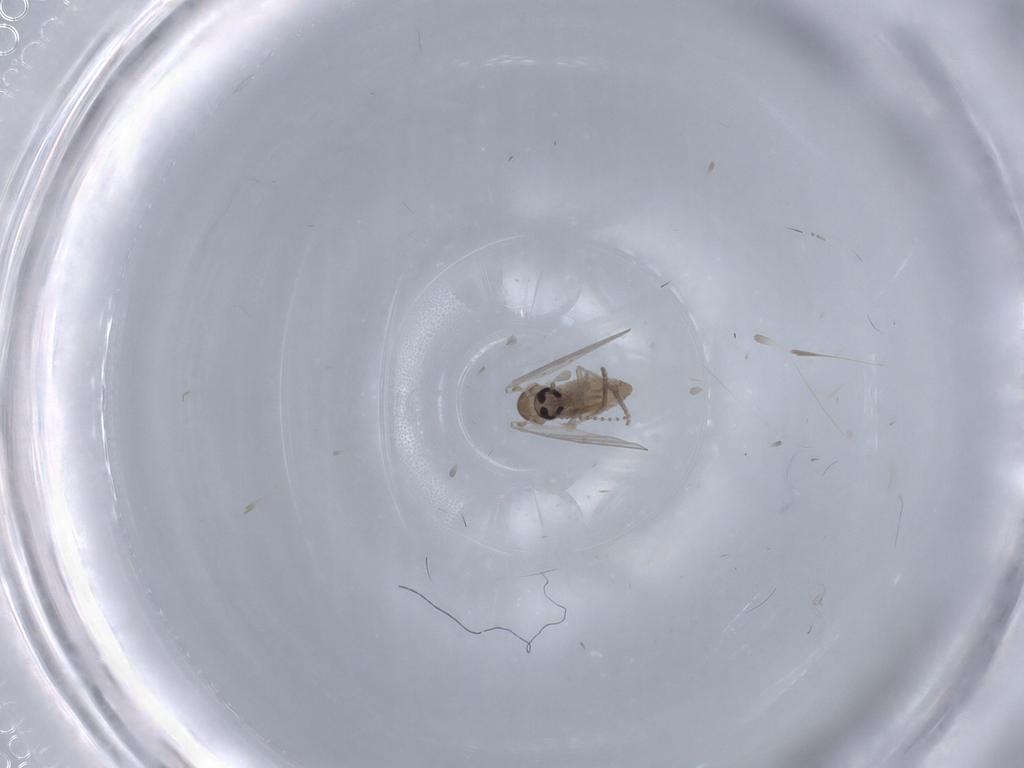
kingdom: Animalia
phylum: Arthropoda
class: Insecta
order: Diptera
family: Psychodidae
